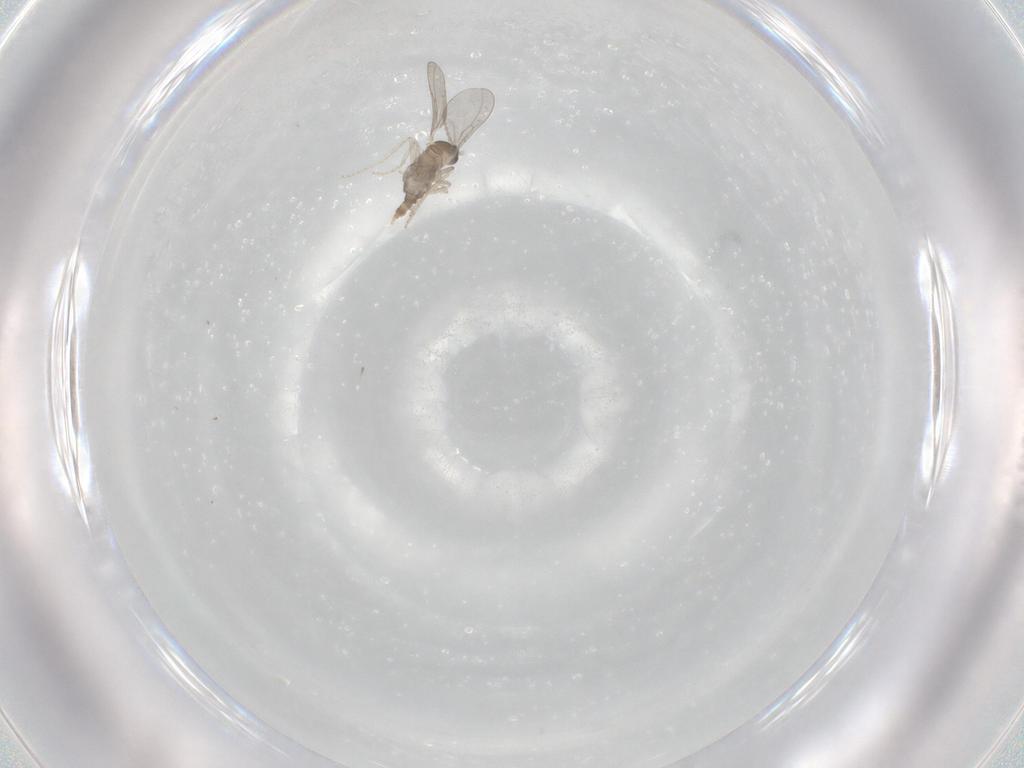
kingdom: Animalia
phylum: Arthropoda
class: Insecta
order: Diptera
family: Cecidomyiidae
